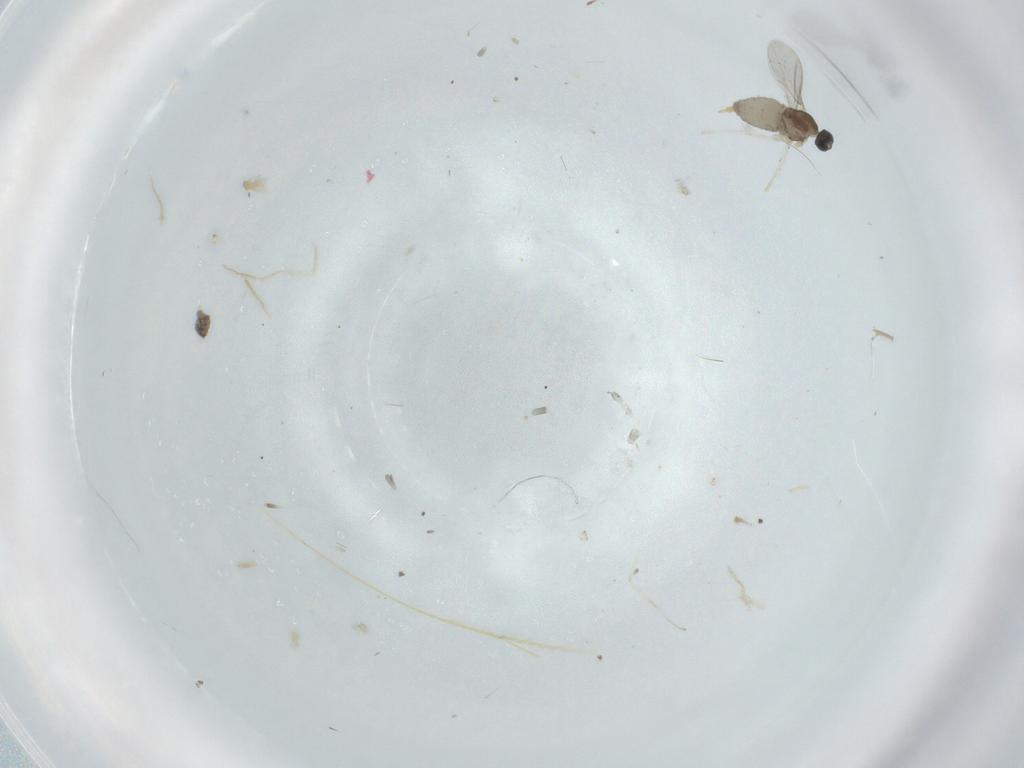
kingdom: Animalia
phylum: Arthropoda
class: Insecta
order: Diptera
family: Cecidomyiidae
